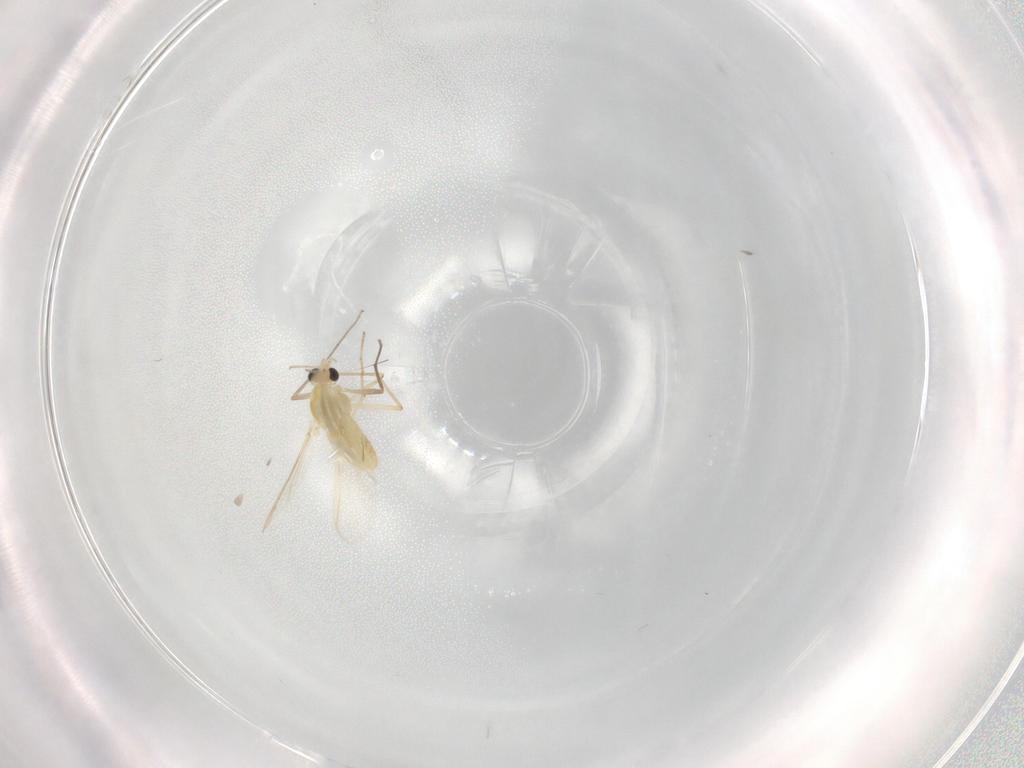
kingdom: Animalia
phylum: Arthropoda
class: Insecta
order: Diptera
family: Chironomidae
